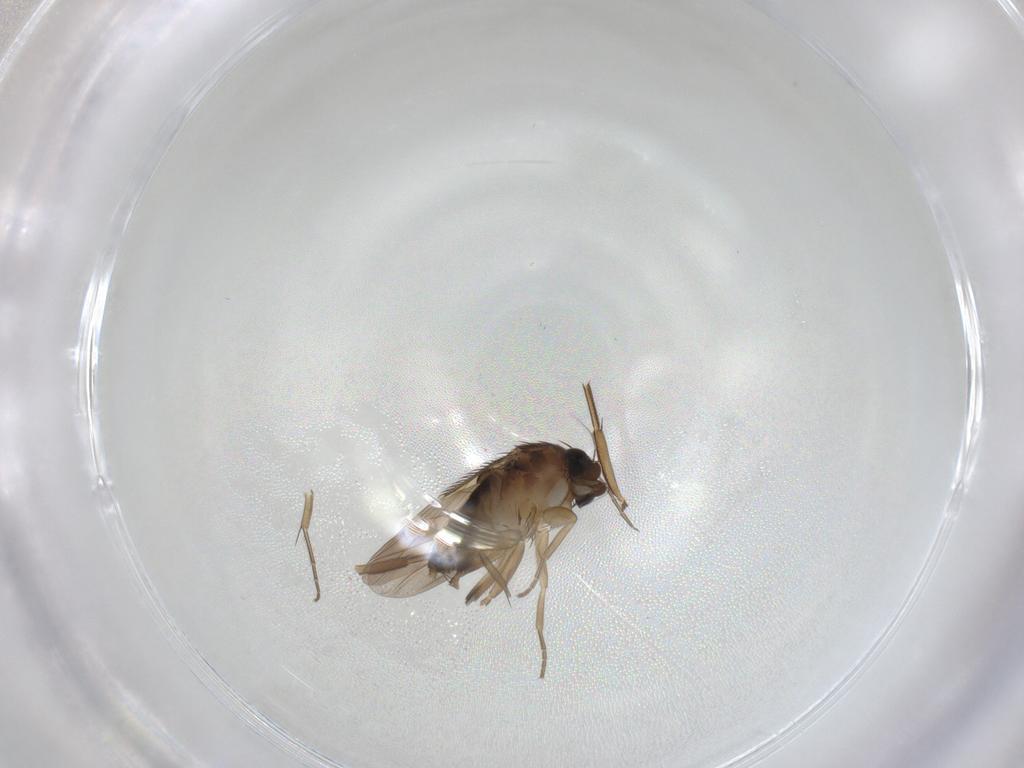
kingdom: Animalia
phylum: Arthropoda
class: Insecta
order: Diptera
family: Phoridae
